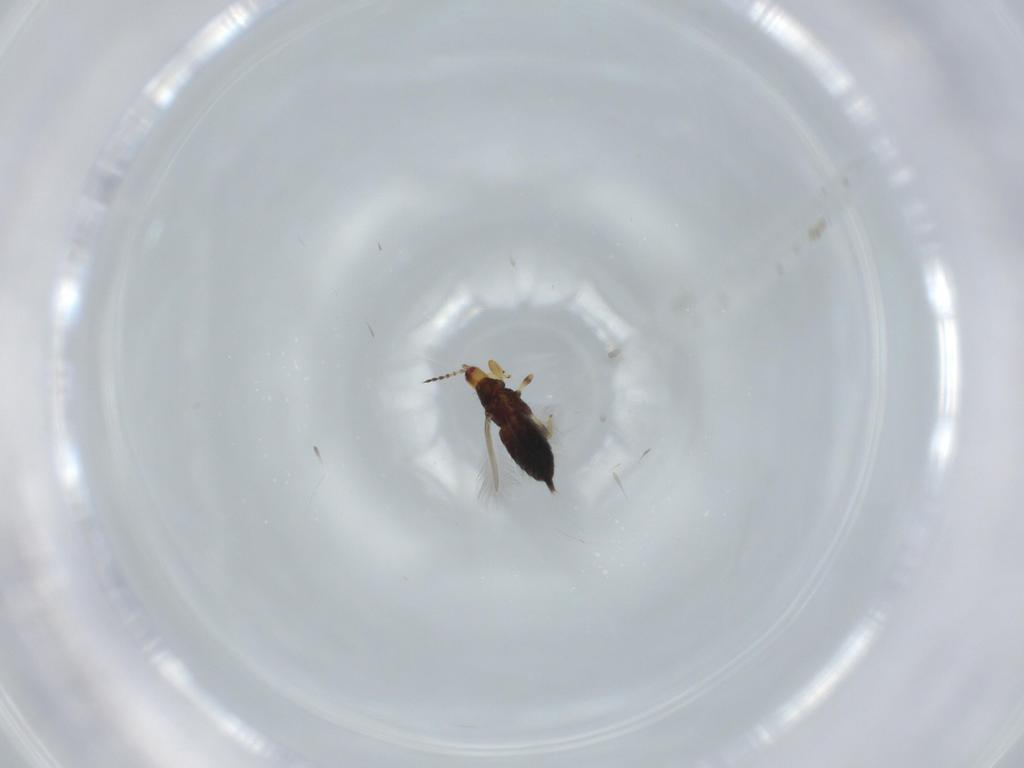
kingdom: Animalia
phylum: Arthropoda
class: Insecta
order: Thysanoptera
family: Phlaeothripidae
